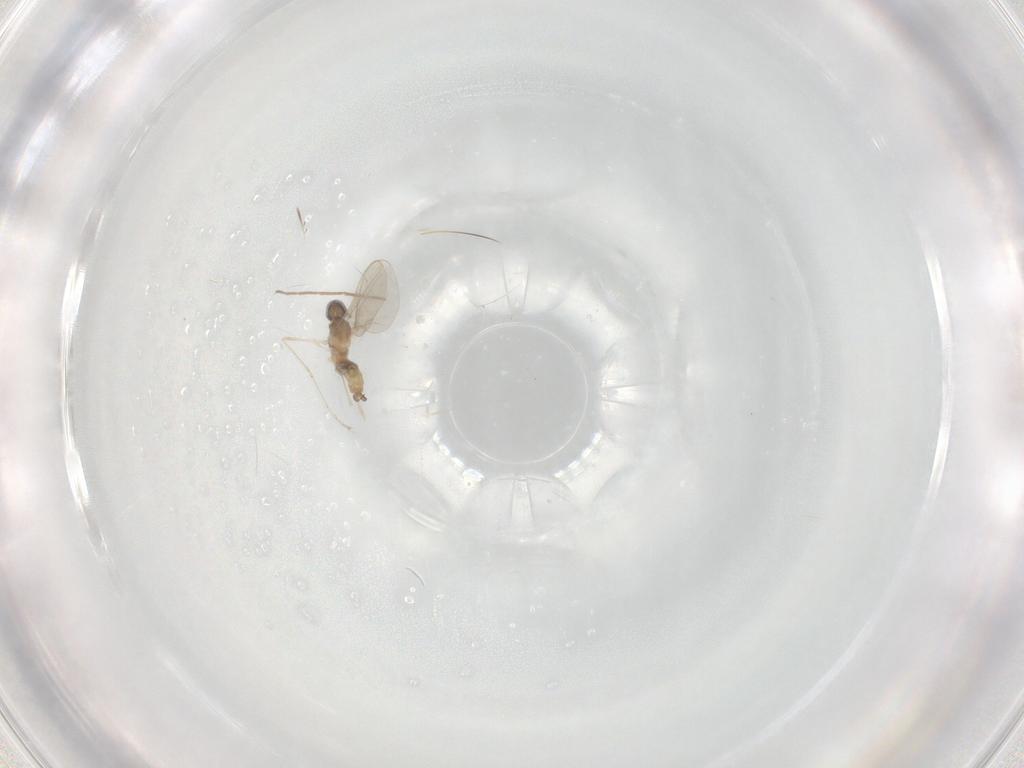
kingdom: Animalia
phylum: Arthropoda
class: Insecta
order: Diptera
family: Cecidomyiidae
